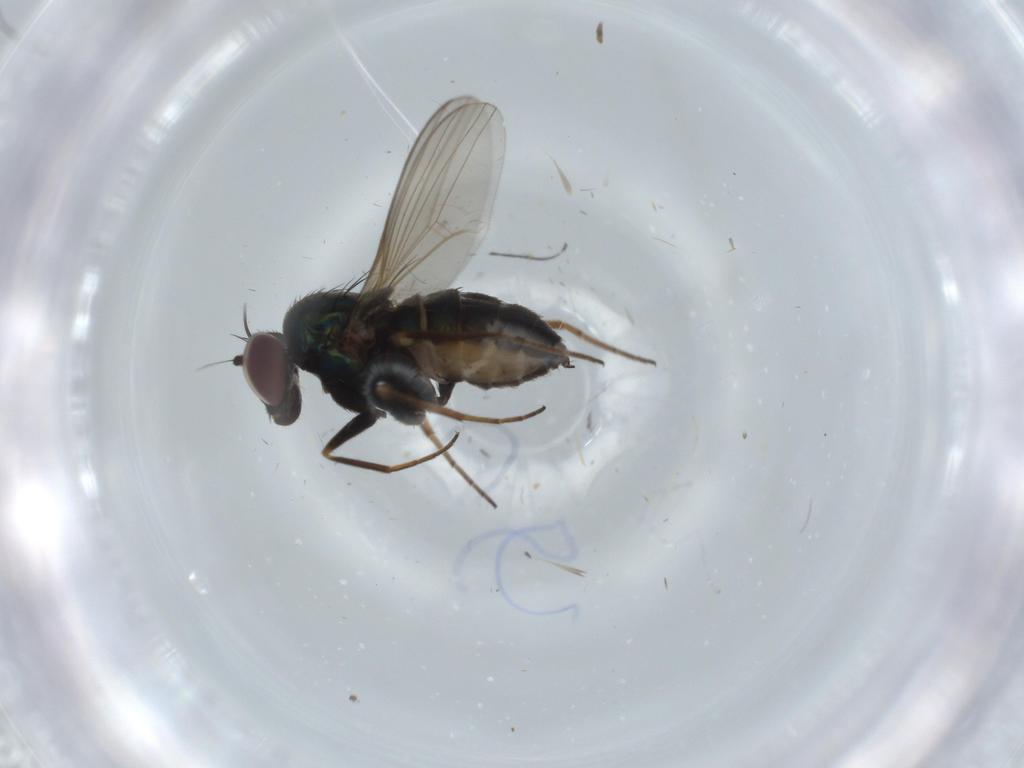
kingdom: Animalia
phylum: Arthropoda
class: Insecta
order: Diptera
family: Dolichopodidae
